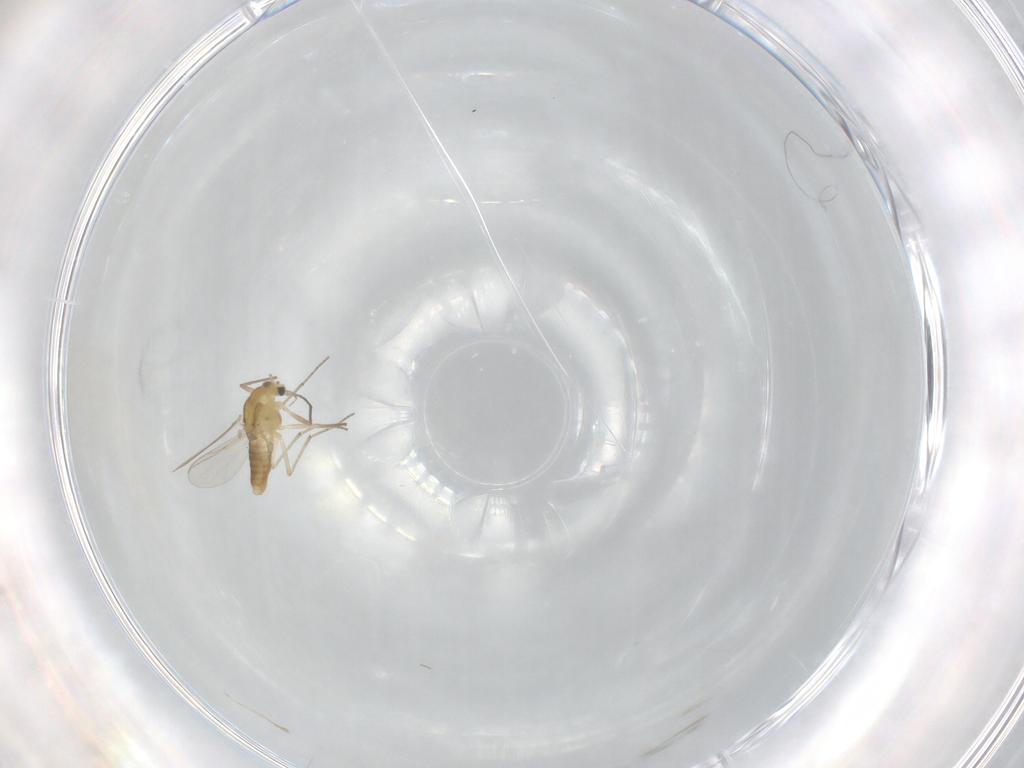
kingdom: Animalia
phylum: Arthropoda
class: Insecta
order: Diptera
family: Chironomidae
